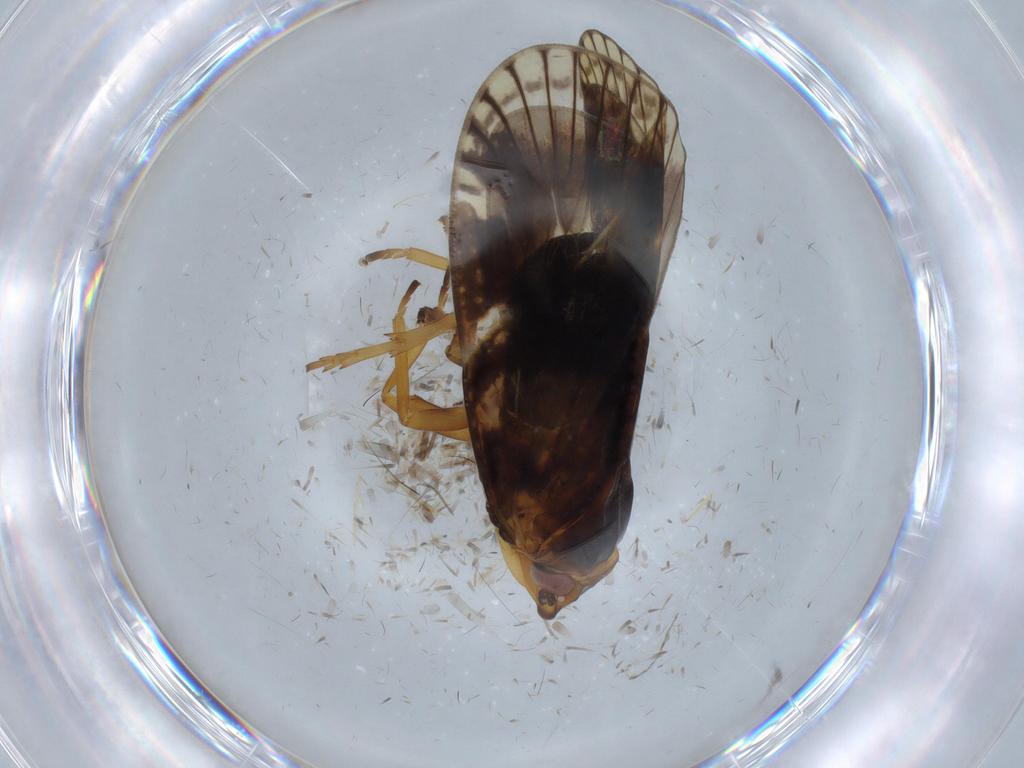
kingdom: Animalia
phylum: Arthropoda
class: Insecta
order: Diptera
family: Chironomidae
